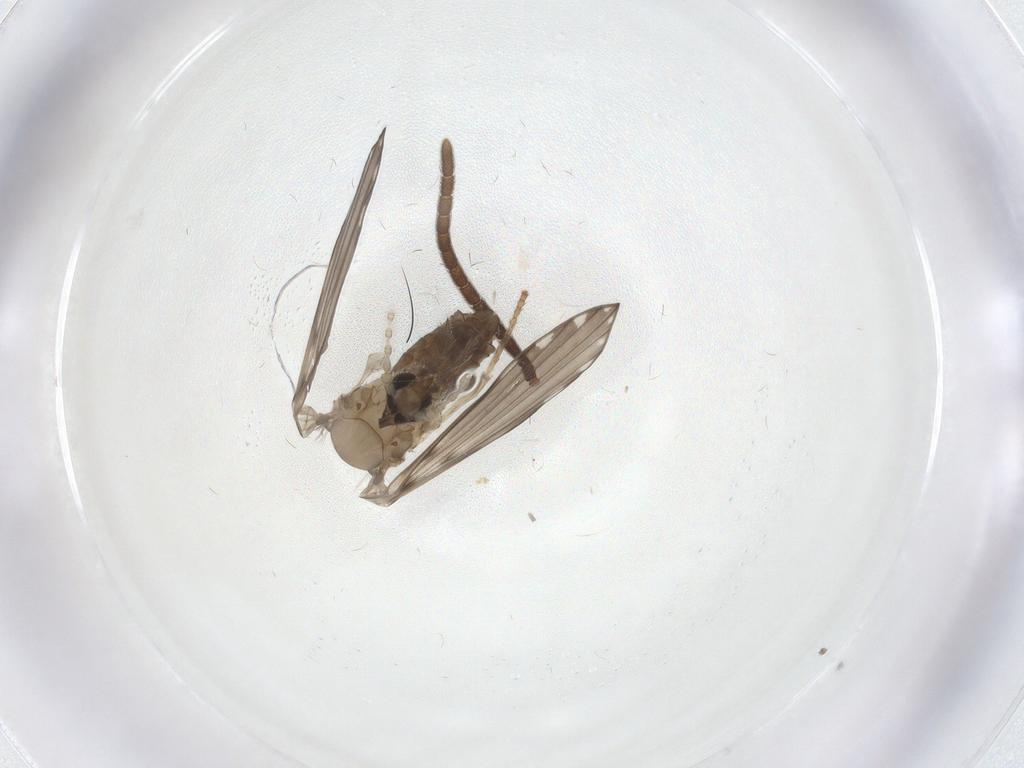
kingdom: Animalia
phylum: Arthropoda
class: Insecta
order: Diptera
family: Psychodidae
